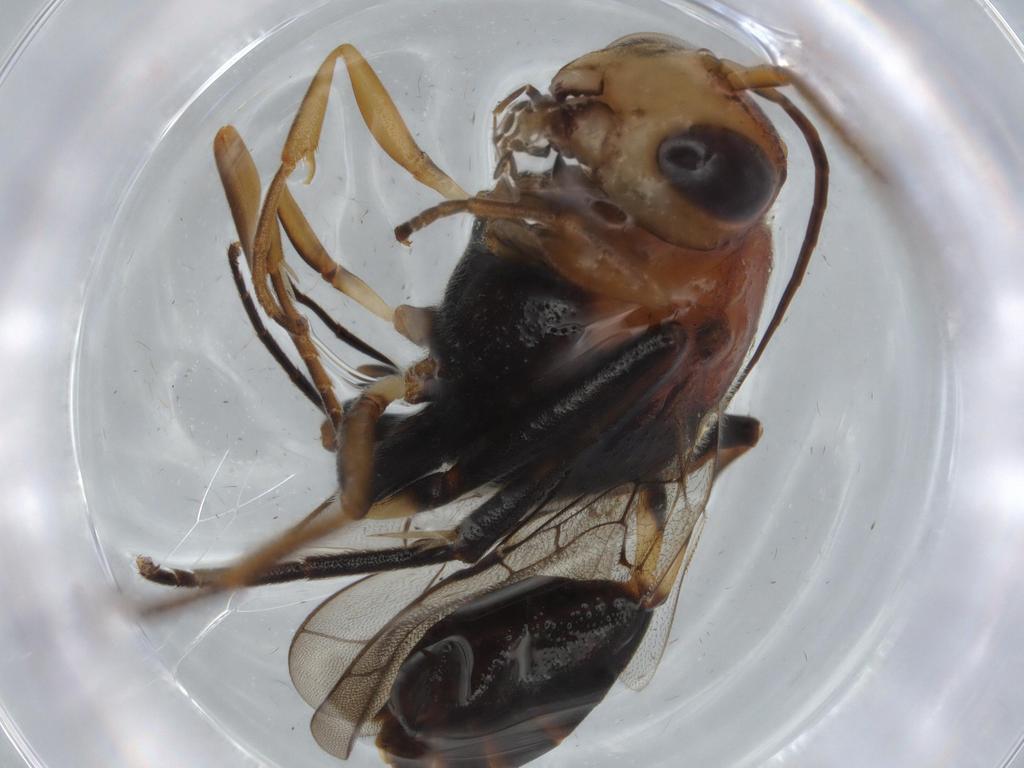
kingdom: Animalia
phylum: Arthropoda
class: Insecta
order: Hymenoptera
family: Platygastridae
